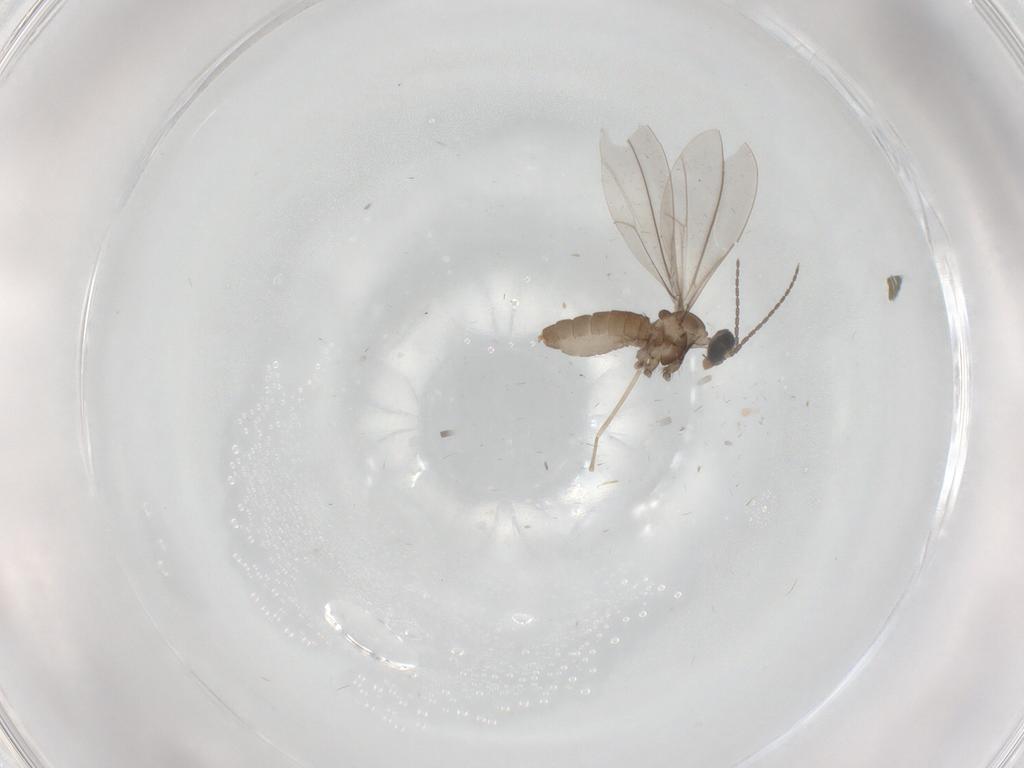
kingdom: Animalia
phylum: Arthropoda
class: Insecta
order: Diptera
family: Cecidomyiidae
